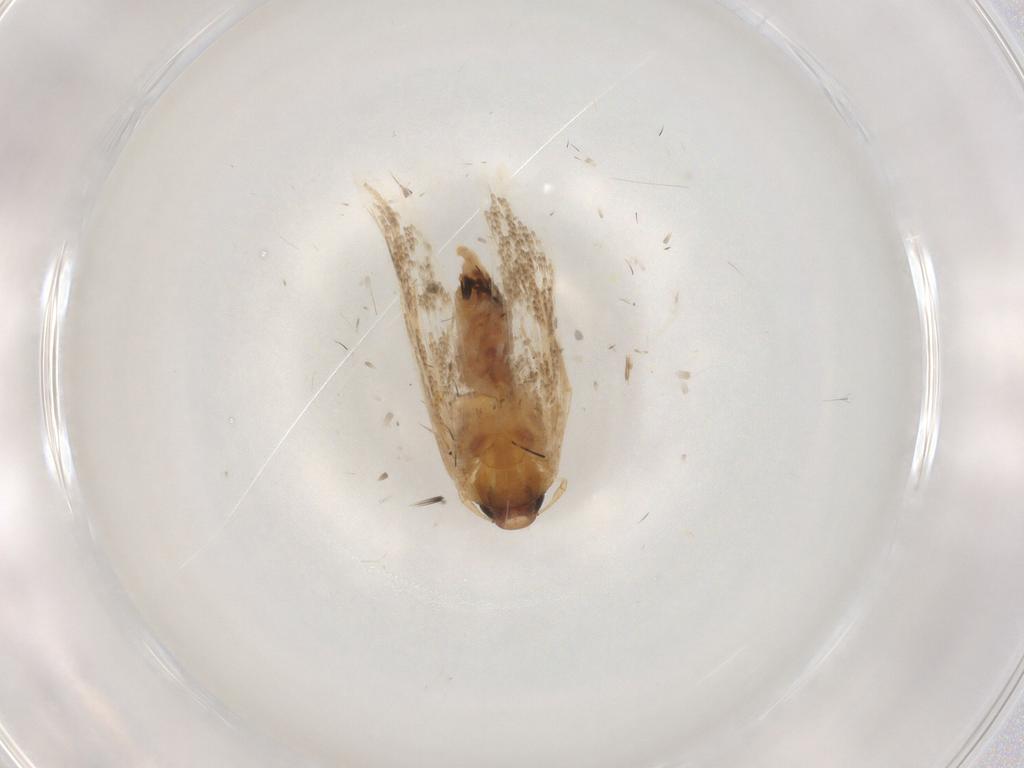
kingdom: Animalia
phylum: Arthropoda
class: Insecta
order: Lepidoptera
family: Cosmopterigidae
